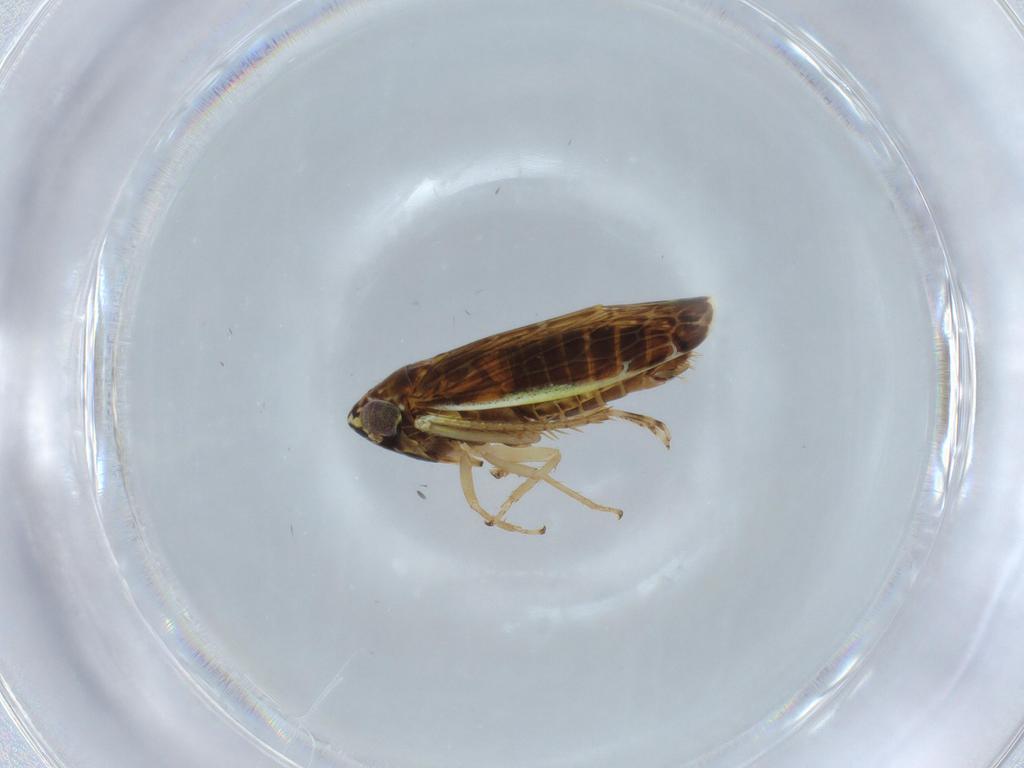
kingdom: Animalia
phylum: Arthropoda
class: Insecta
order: Hemiptera
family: Cicadellidae
